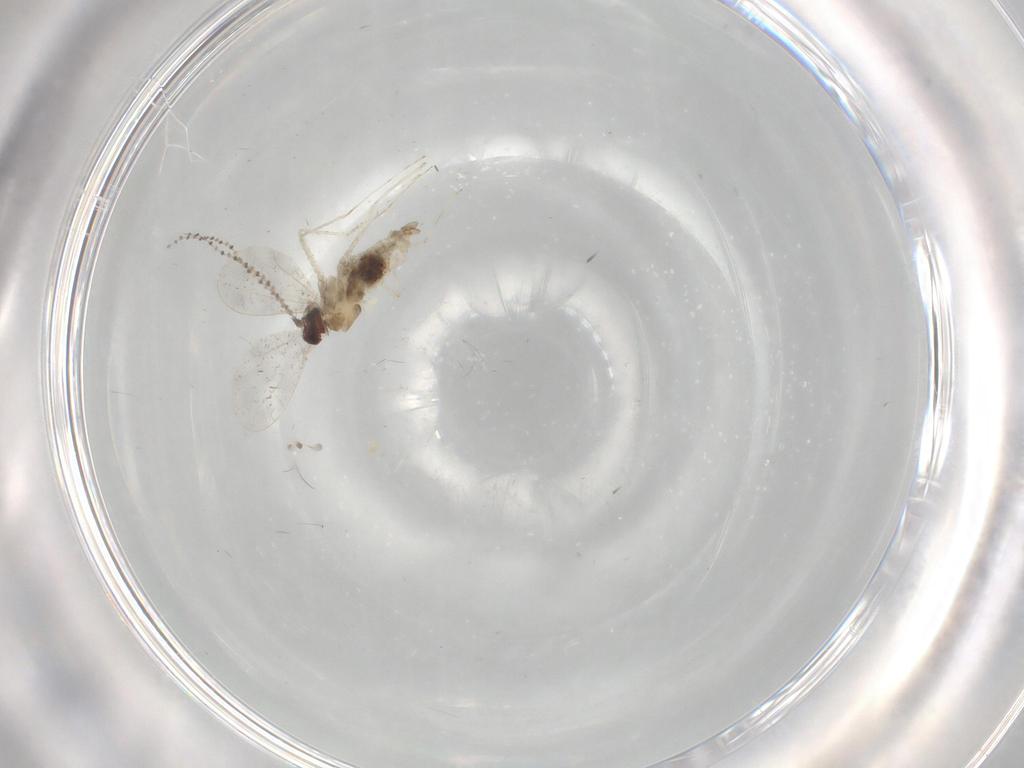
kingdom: Animalia
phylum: Arthropoda
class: Insecta
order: Diptera
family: Cecidomyiidae
